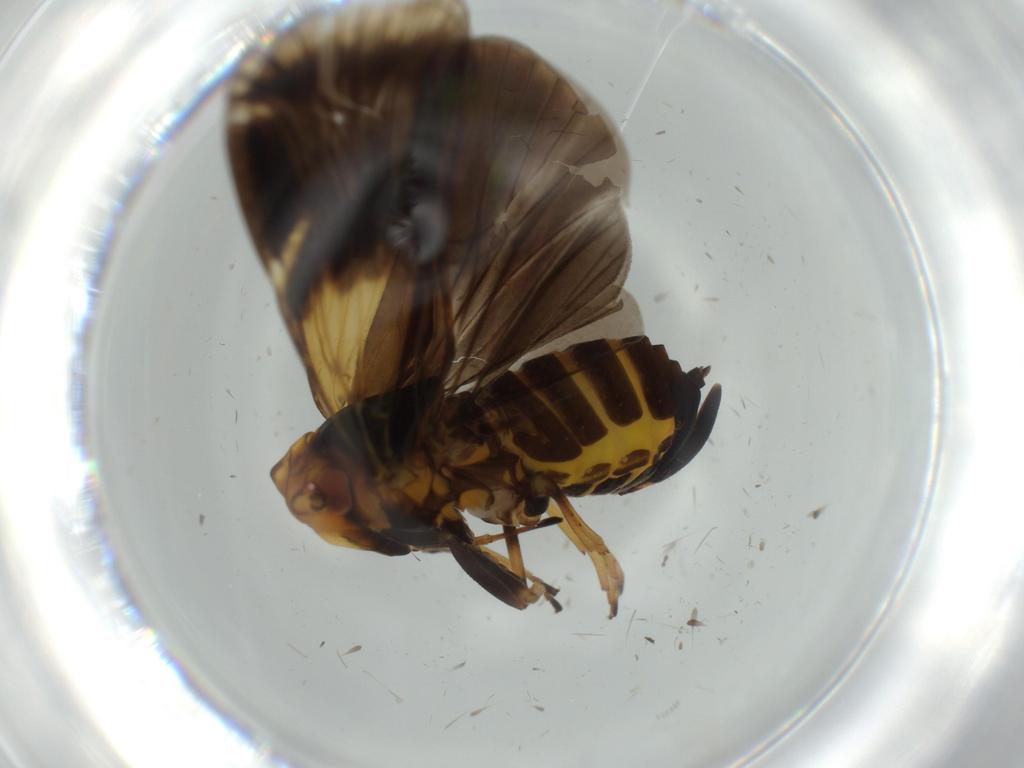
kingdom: Animalia
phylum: Arthropoda
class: Insecta
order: Hemiptera
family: Cixiidae
